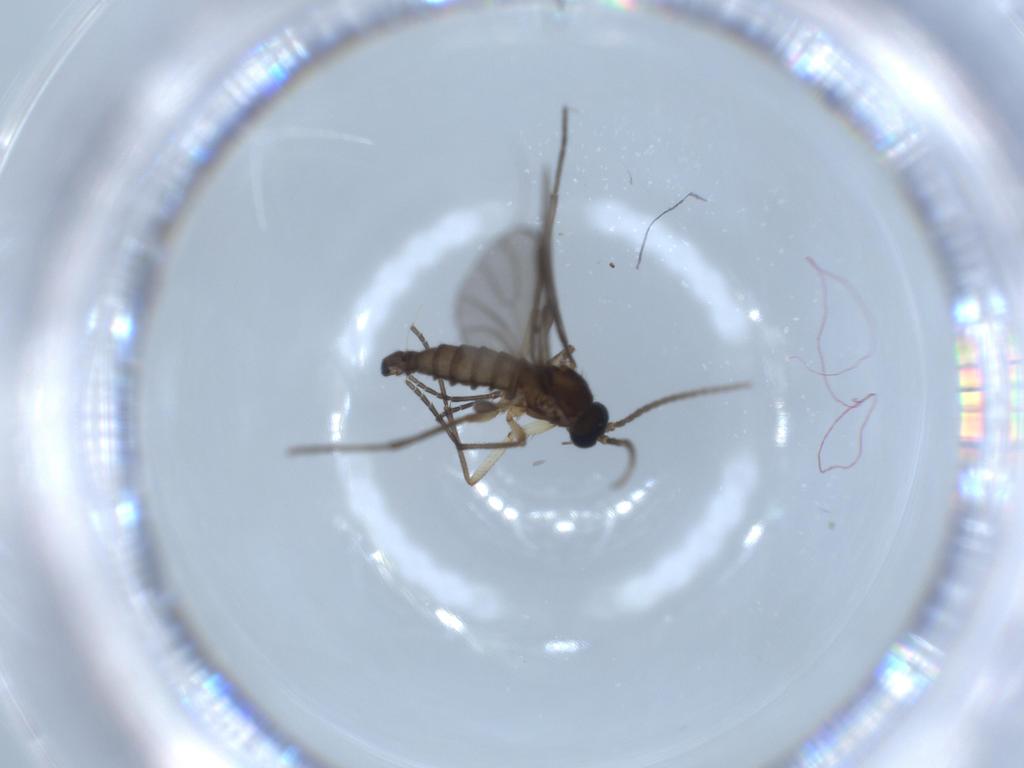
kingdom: Animalia
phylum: Arthropoda
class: Insecta
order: Diptera
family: Sciaridae
